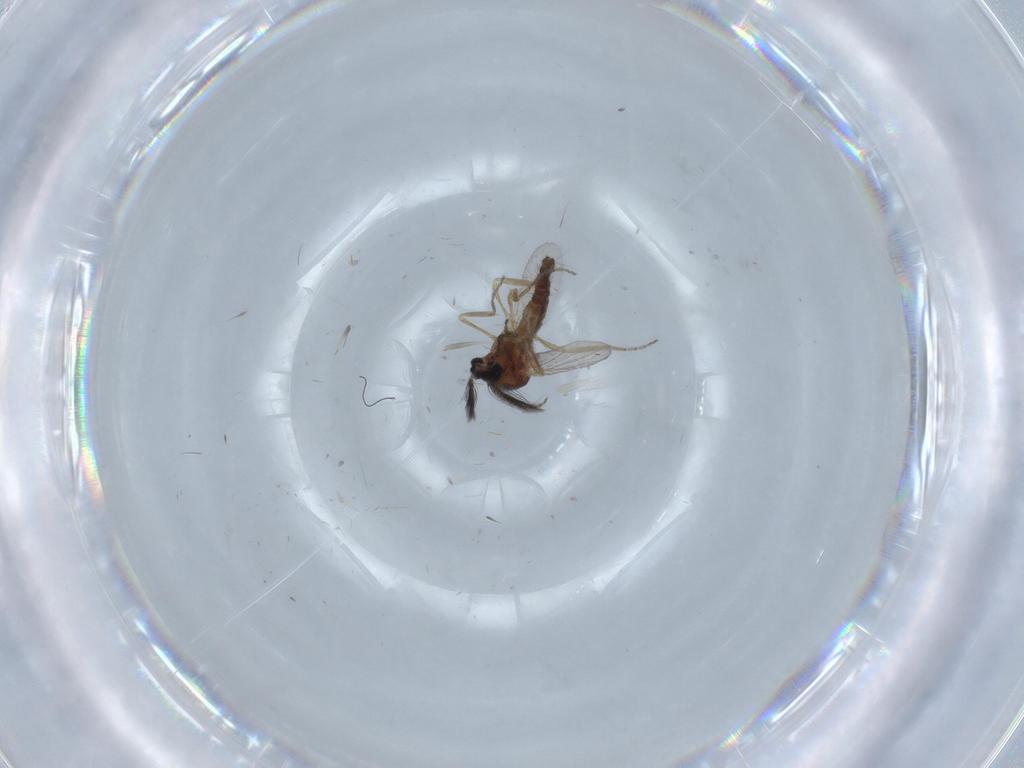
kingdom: Animalia
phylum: Arthropoda
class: Insecta
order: Diptera
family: Ceratopogonidae
